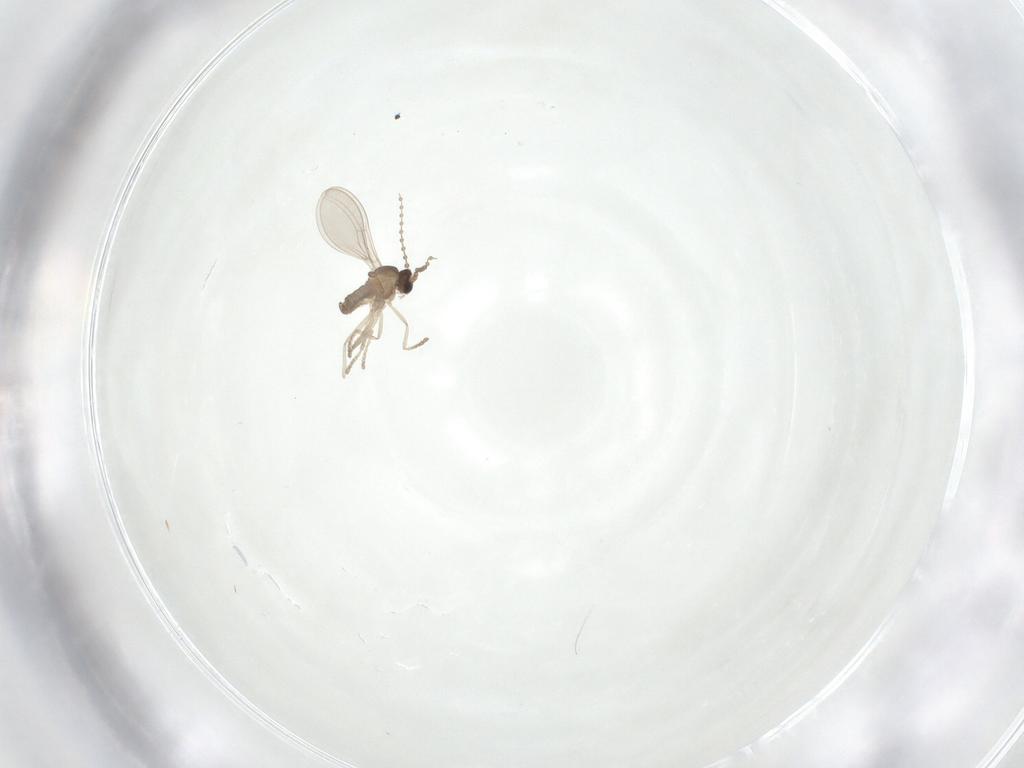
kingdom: Animalia
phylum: Arthropoda
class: Insecta
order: Diptera
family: Cecidomyiidae
